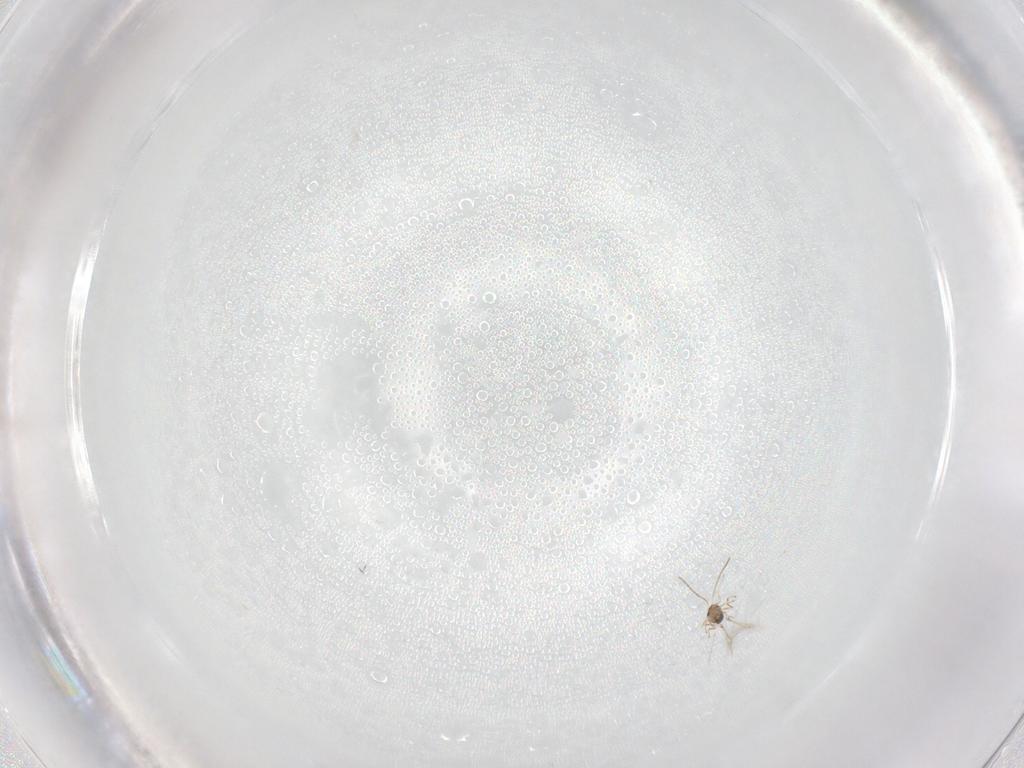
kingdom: Animalia
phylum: Arthropoda
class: Insecta
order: Hymenoptera
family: Mymaridae
